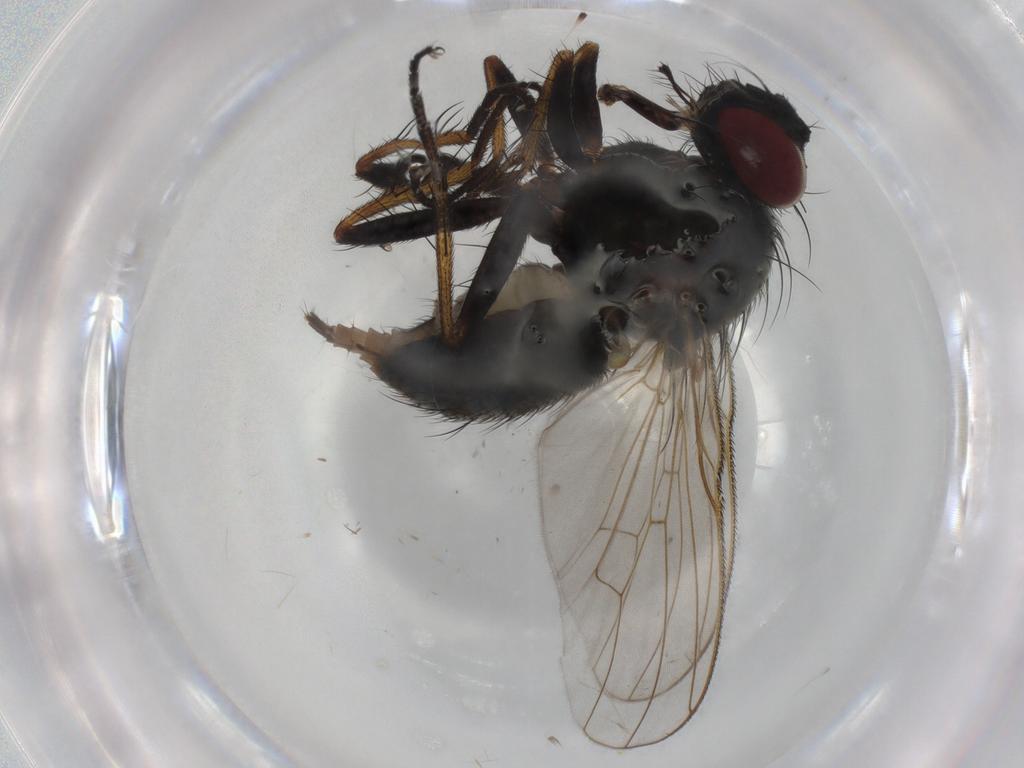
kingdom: Animalia
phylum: Arthropoda
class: Insecta
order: Diptera
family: Muscidae
